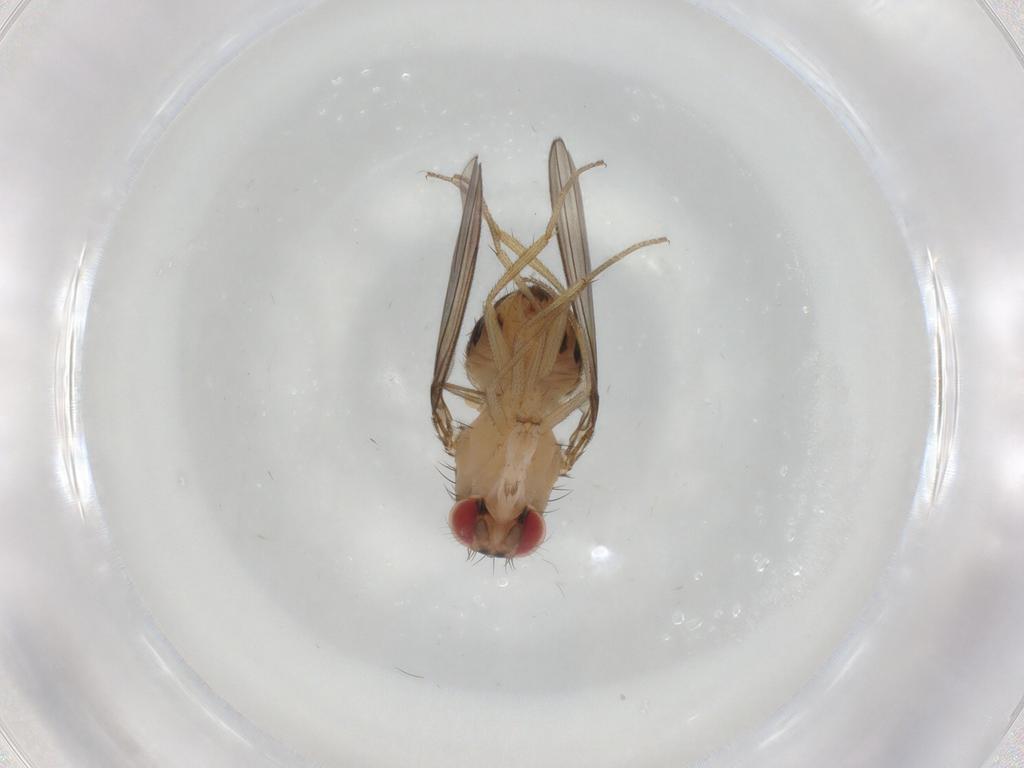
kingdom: Animalia
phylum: Arthropoda
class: Insecta
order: Diptera
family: Drosophilidae
